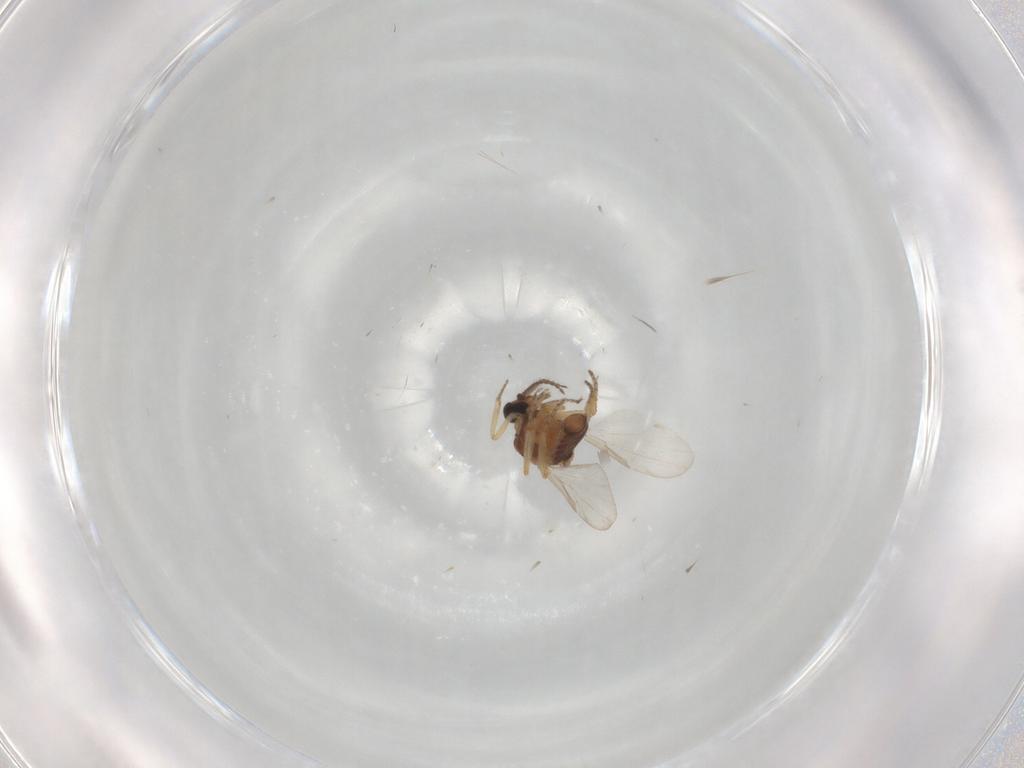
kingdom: Animalia
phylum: Arthropoda
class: Insecta
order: Diptera
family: Ceratopogonidae
